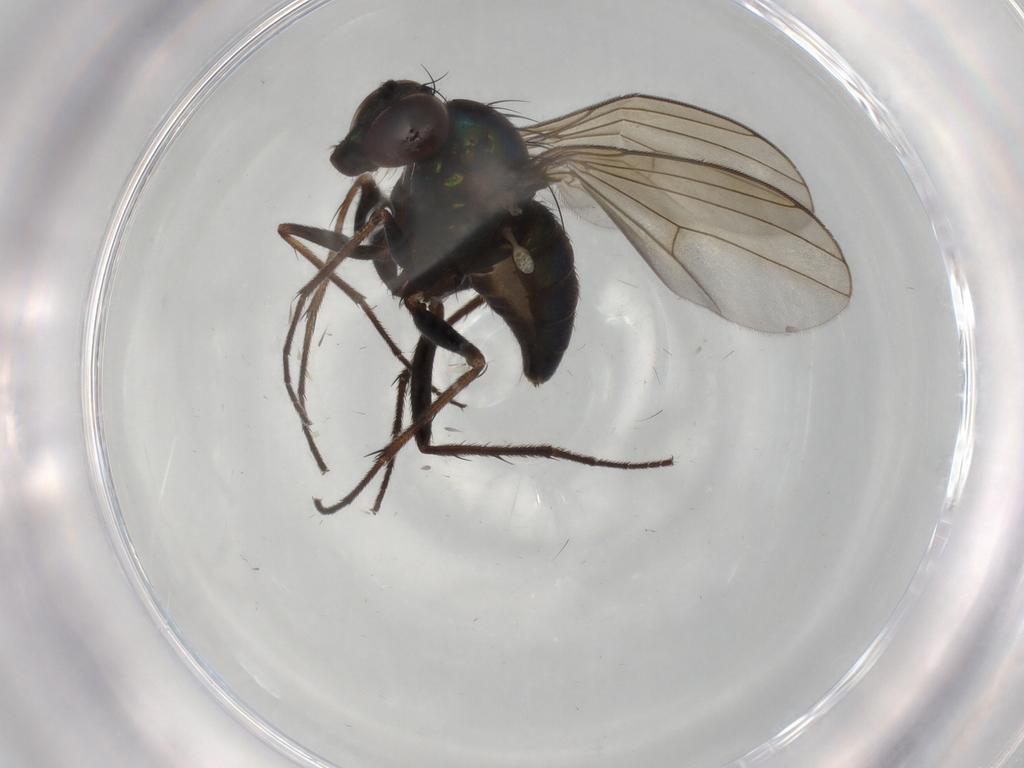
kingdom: Animalia
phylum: Arthropoda
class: Insecta
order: Diptera
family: Dolichopodidae
